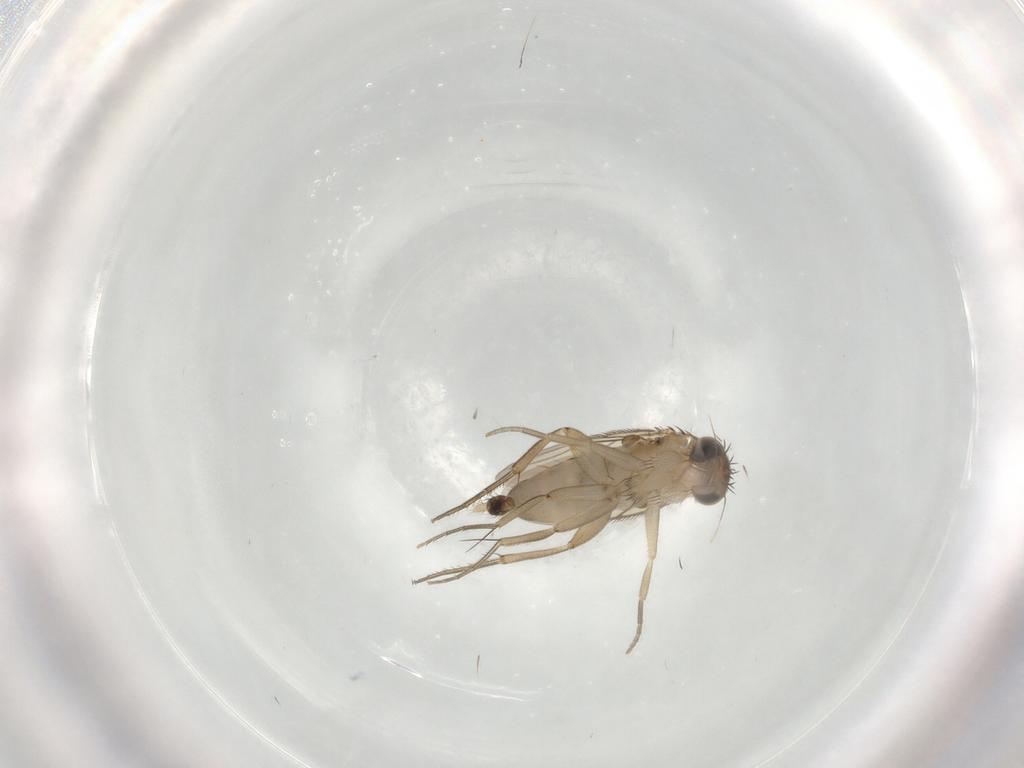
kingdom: Animalia
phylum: Arthropoda
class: Insecta
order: Diptera
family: Phoridae
